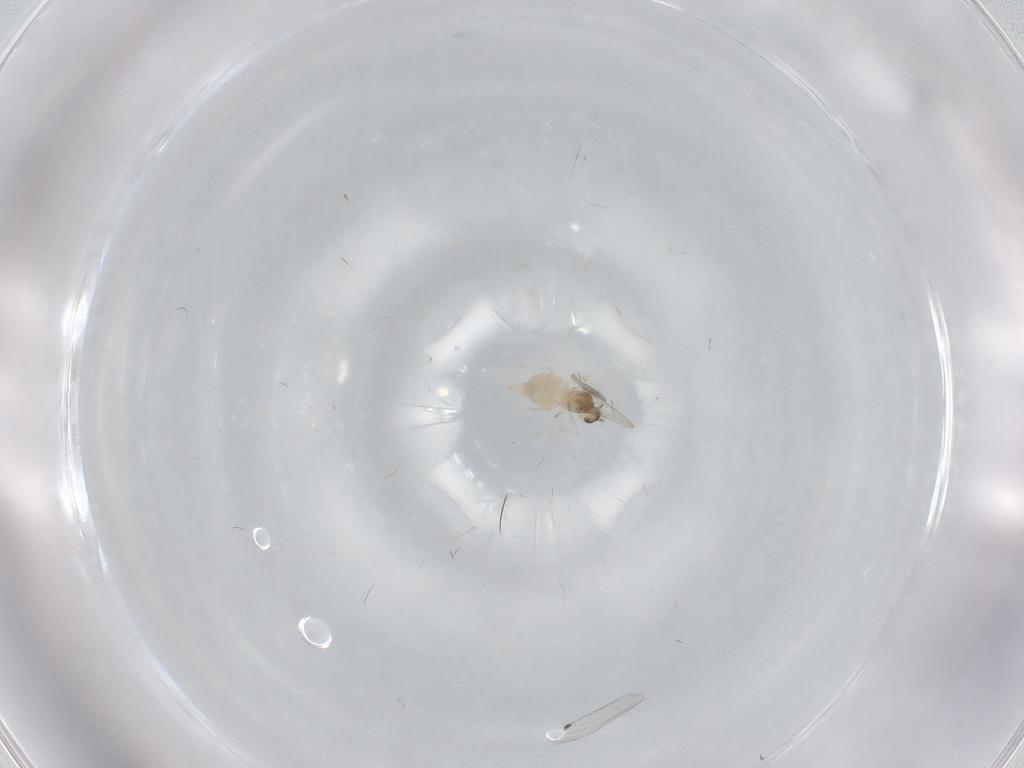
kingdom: Animalia
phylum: Arthropoda
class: Insecta
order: Diptera
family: Cecidomyiidae
